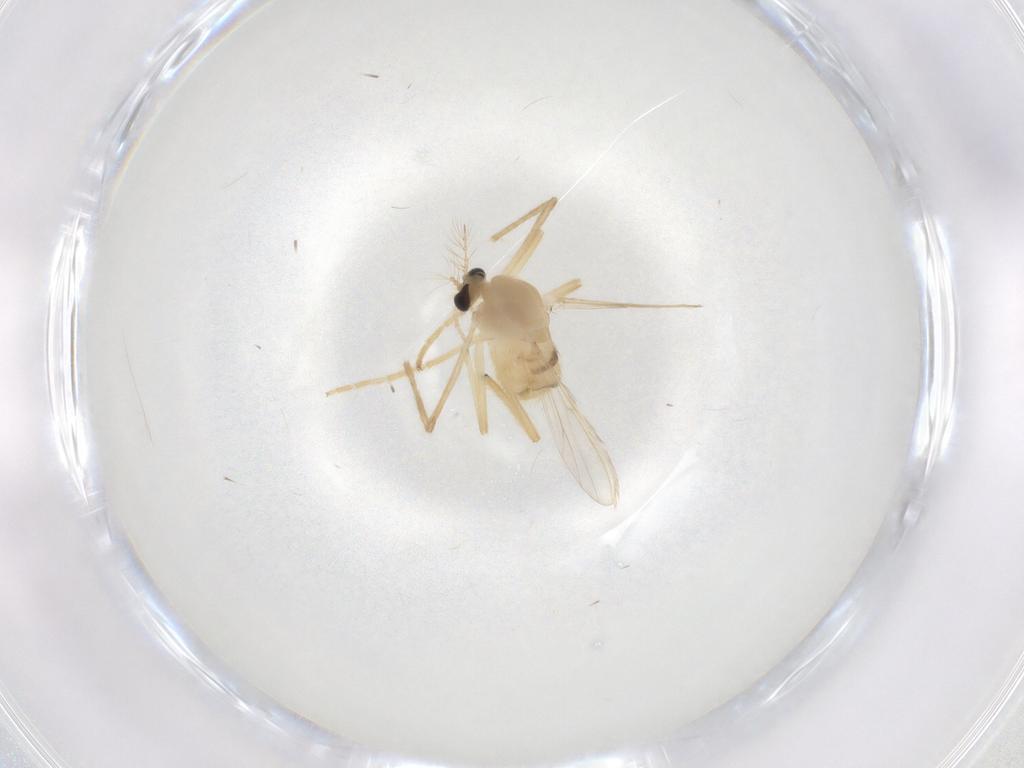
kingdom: Animalia
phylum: Arthropoda
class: Insecta
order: Diptera
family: Chironomidae
